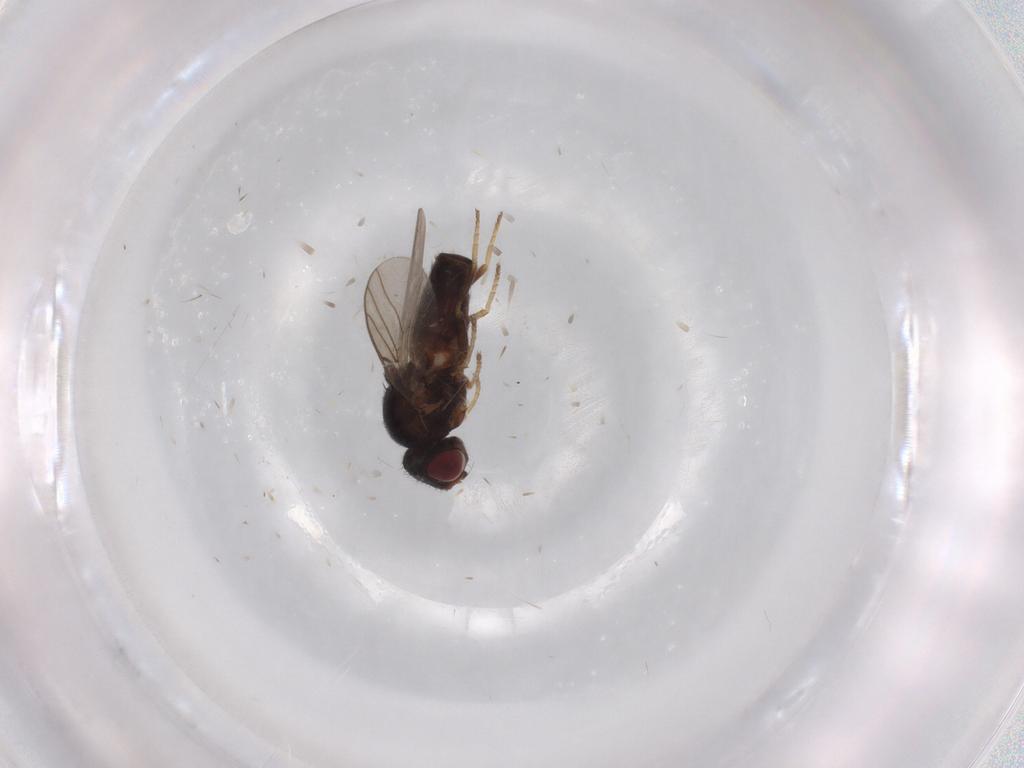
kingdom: Animalia
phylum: Arthropoda
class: Insecta
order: Diptera
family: Chloropidae
